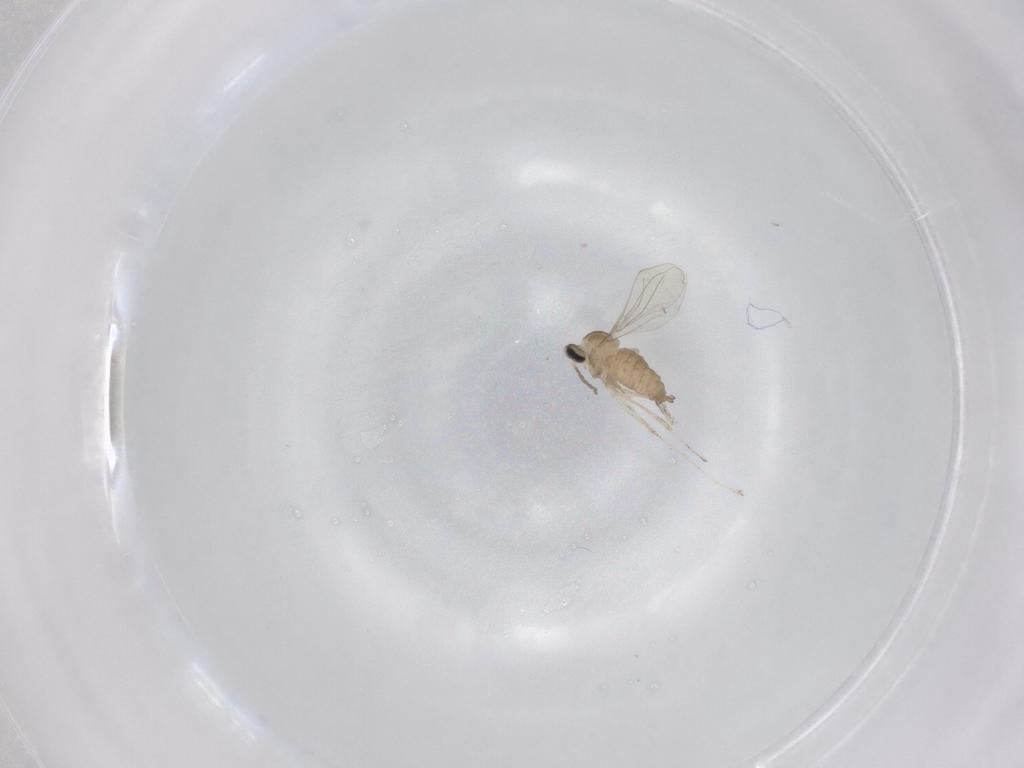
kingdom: Animalia
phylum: Arthropoda
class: Insecta
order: Diptera
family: Cecidomyiidae
